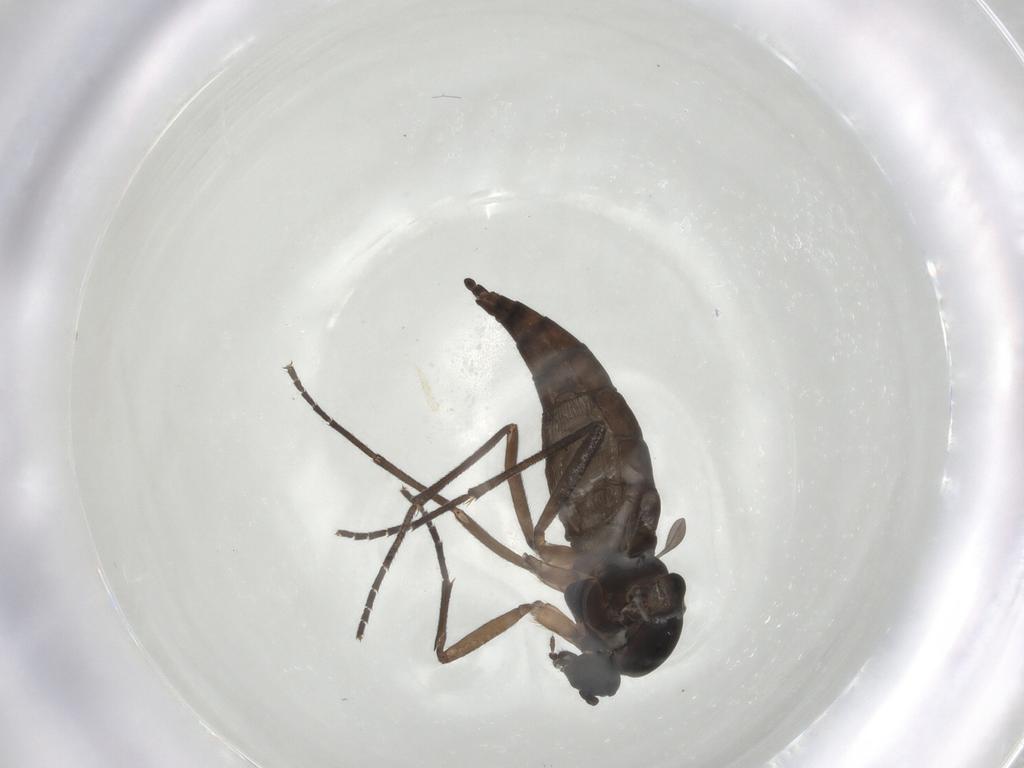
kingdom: Animalia
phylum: Arthropoda
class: Insecta
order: Diptera
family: Sciaridae
